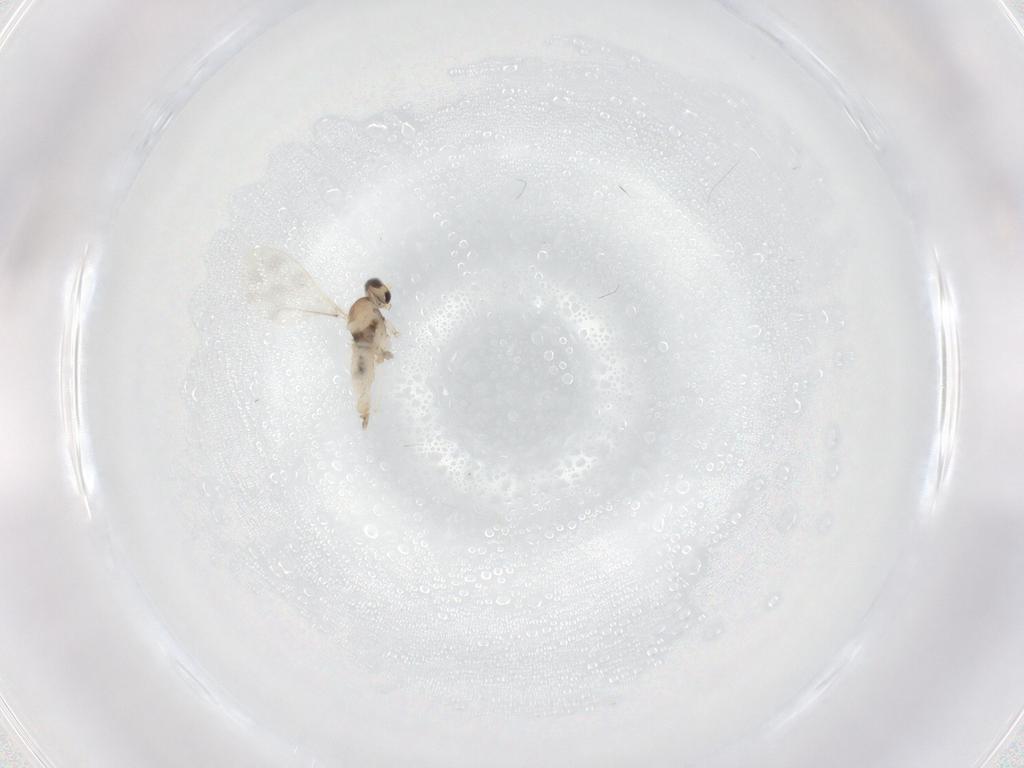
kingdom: Animalia
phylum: Arthropoda
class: Insecta
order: Diptera
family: Cecidomyiidae
